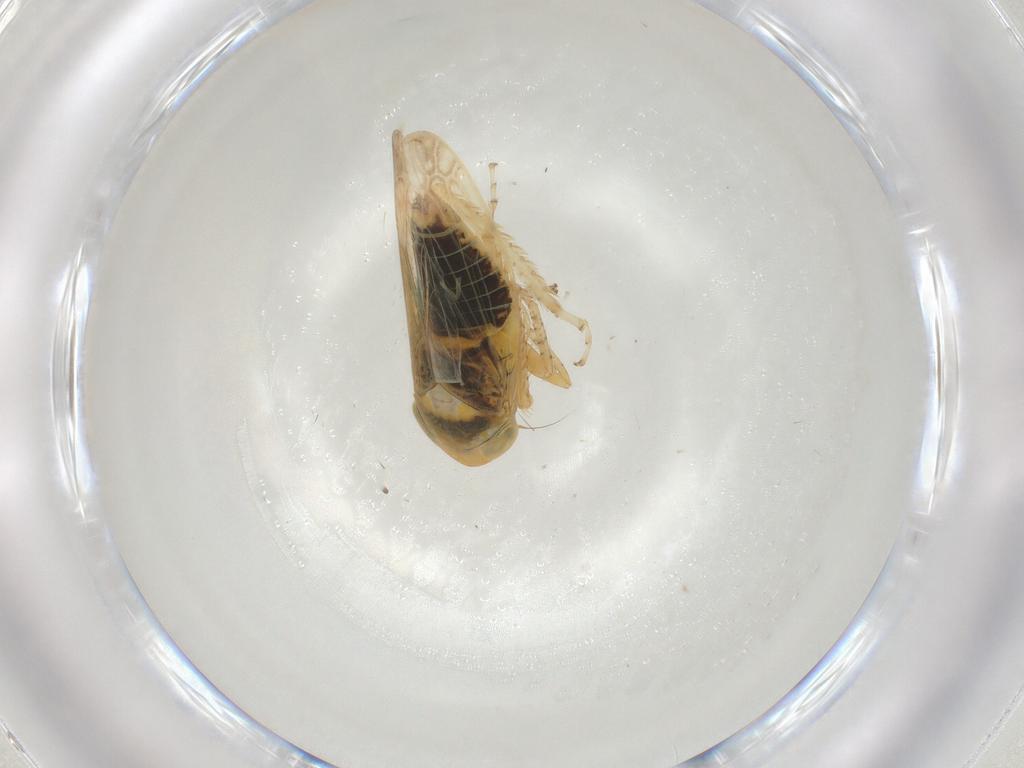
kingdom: Animalia
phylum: Arthropoda
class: Insecta
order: Hemiptera
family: Cicadellidae
